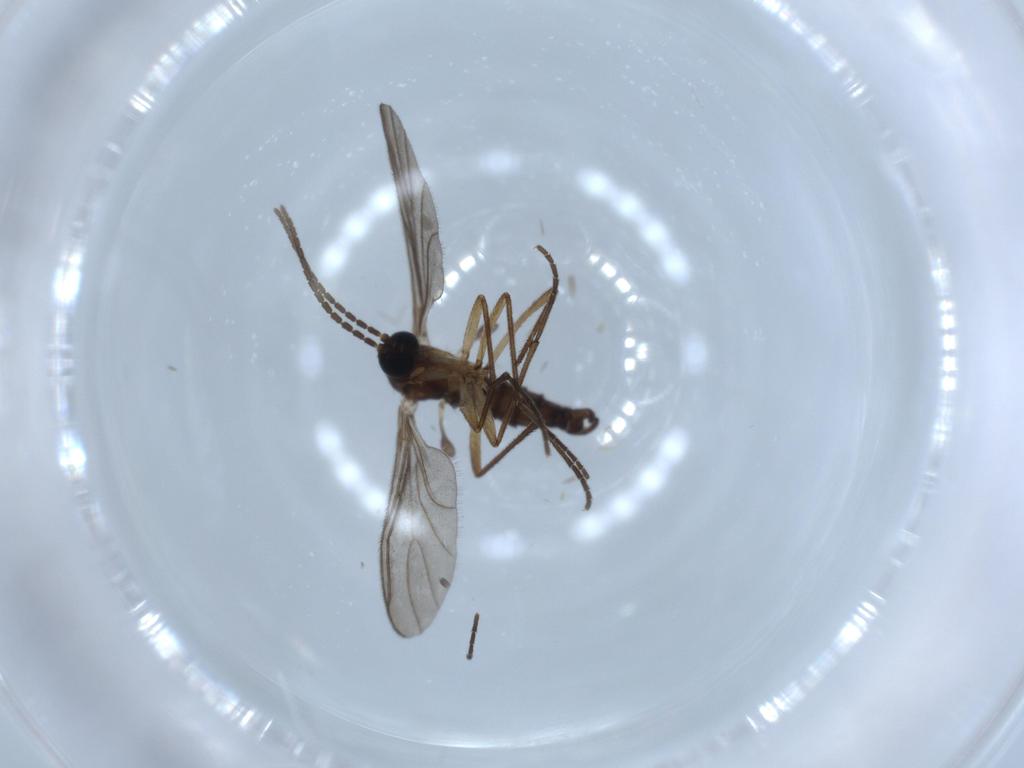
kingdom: Animalia
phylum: Arthropoda
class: Insecta
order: Diptera
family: Sciaridae
